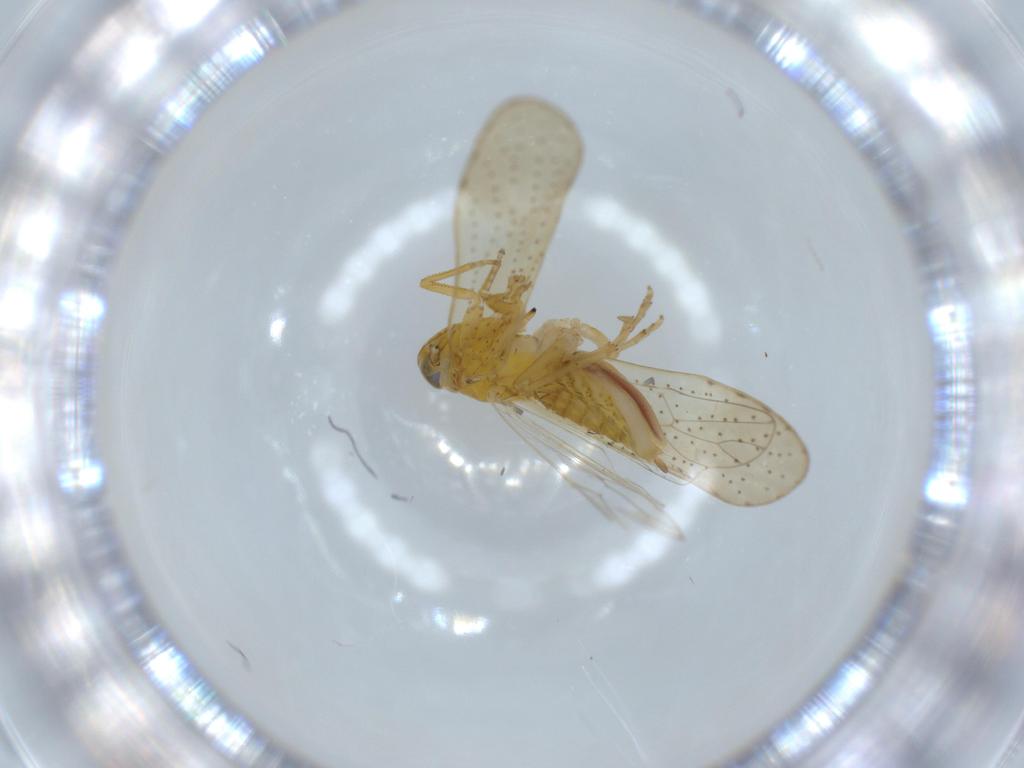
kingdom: Animalia
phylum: Arthropoda
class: Insecta
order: Hemiptera
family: Delphacidae
